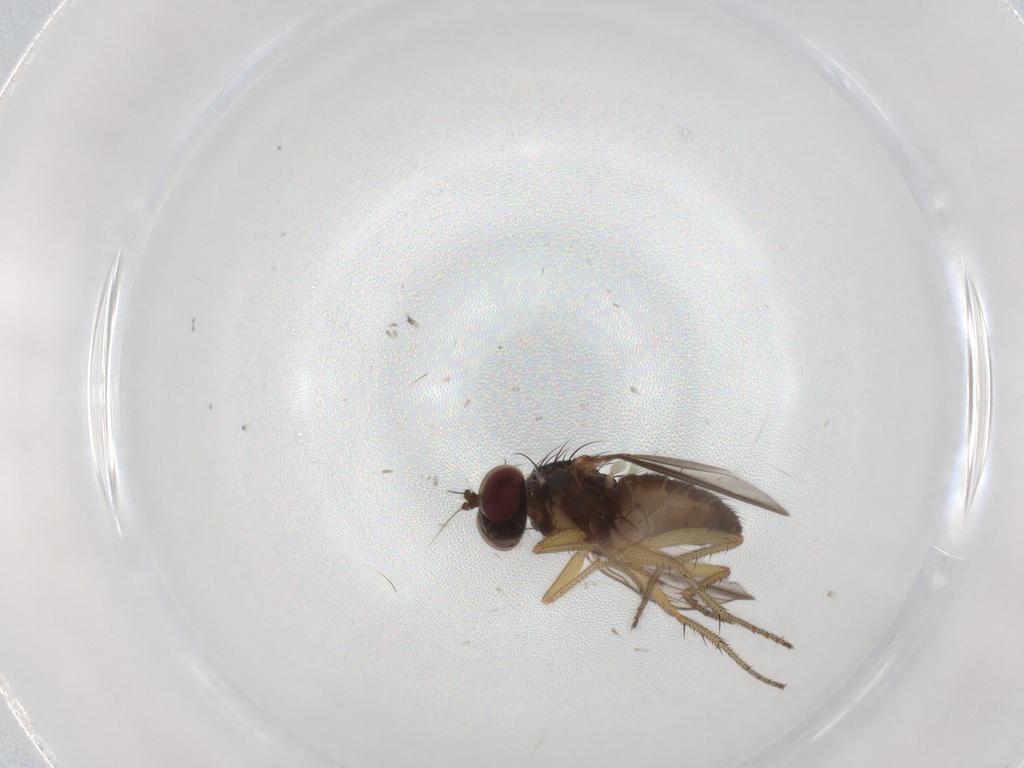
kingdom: Animalia
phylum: Arthropoda
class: Insecta
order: Diptera
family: Dolichopodidae
